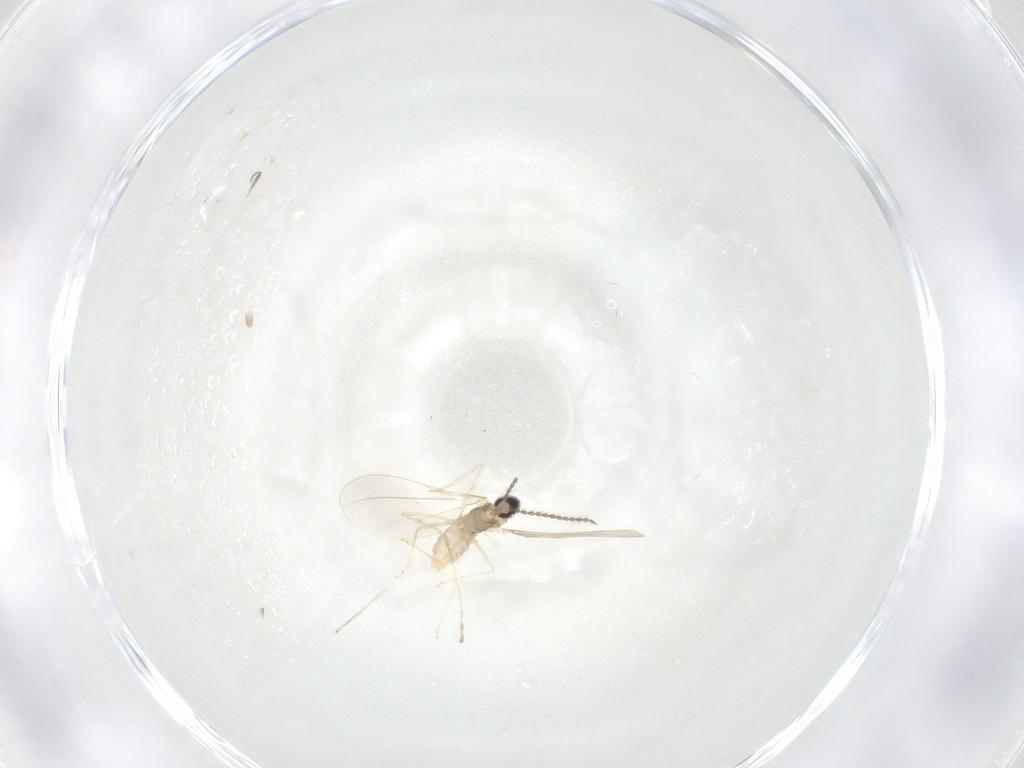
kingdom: Animalia
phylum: Arthropoda
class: Insecta
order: Diptera
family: Cecidomyiidae
